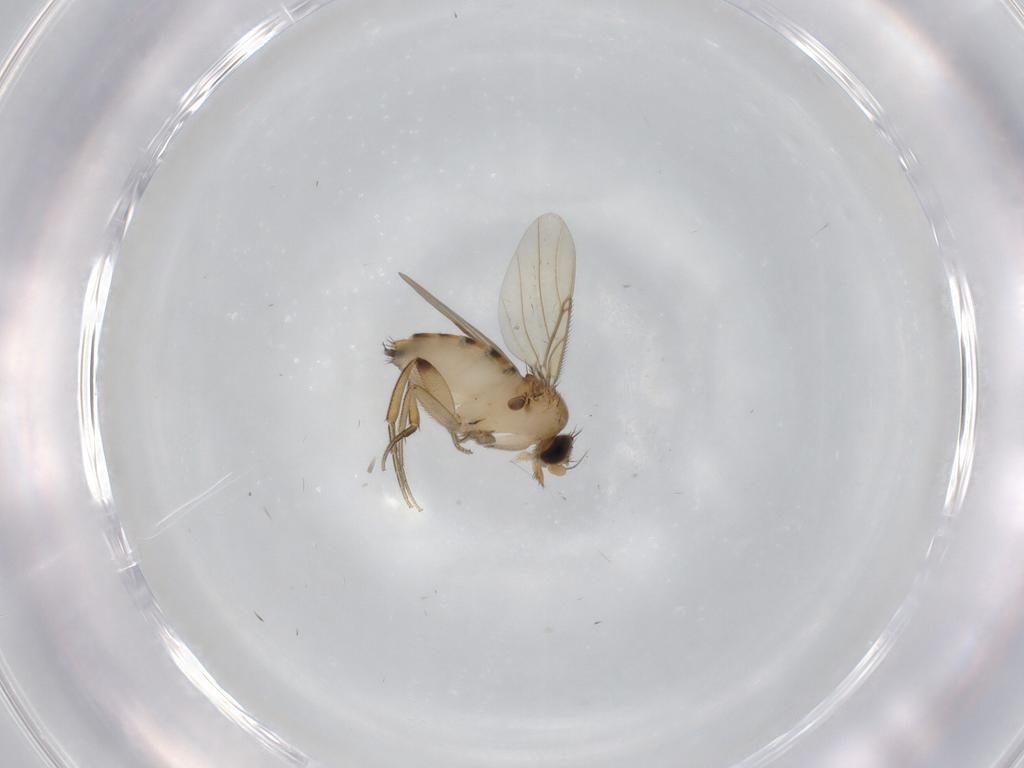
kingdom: Animalia
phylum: Arthropoda
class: Insecta
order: Diptera
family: Phoridae
